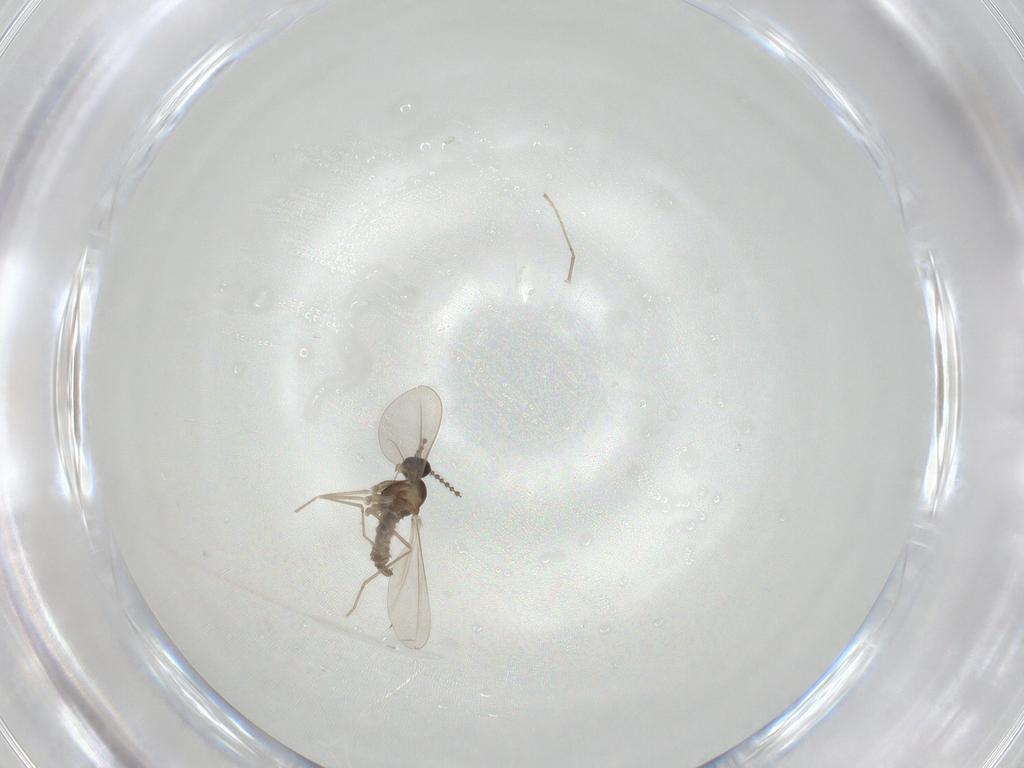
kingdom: Animalia
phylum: Arthropoda
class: Insecta
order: Diptera
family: Cecidomyiidae
